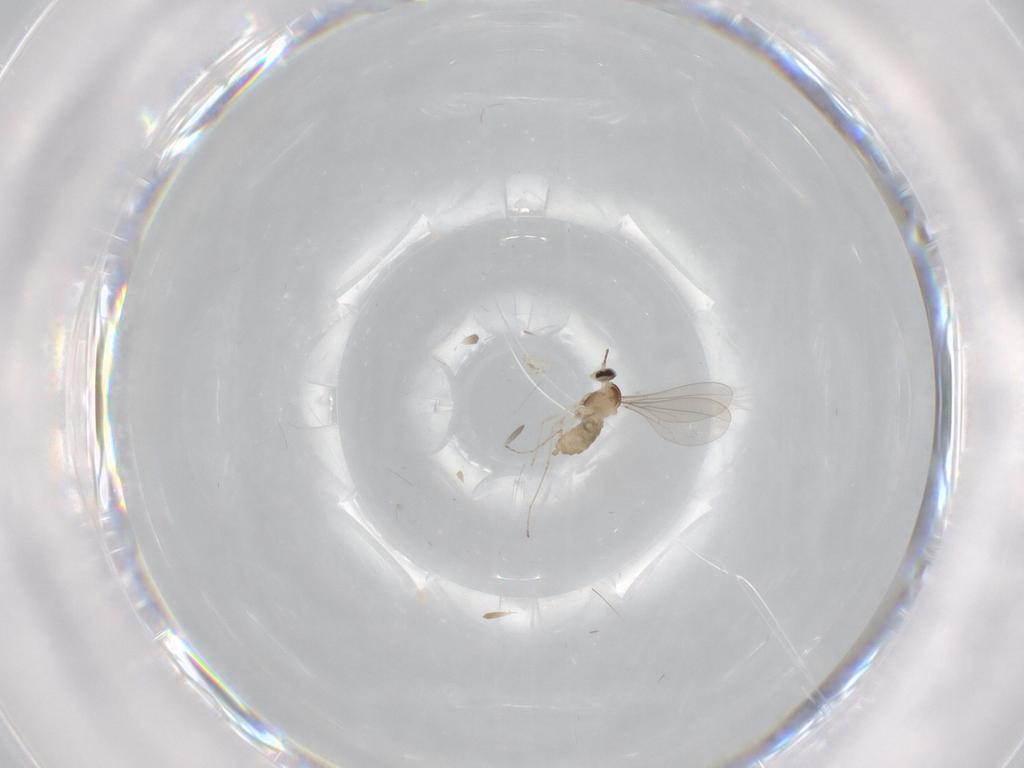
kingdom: Animalia
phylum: Arthropoda
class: Insecta
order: Diptera
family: Cecidomyiidae
